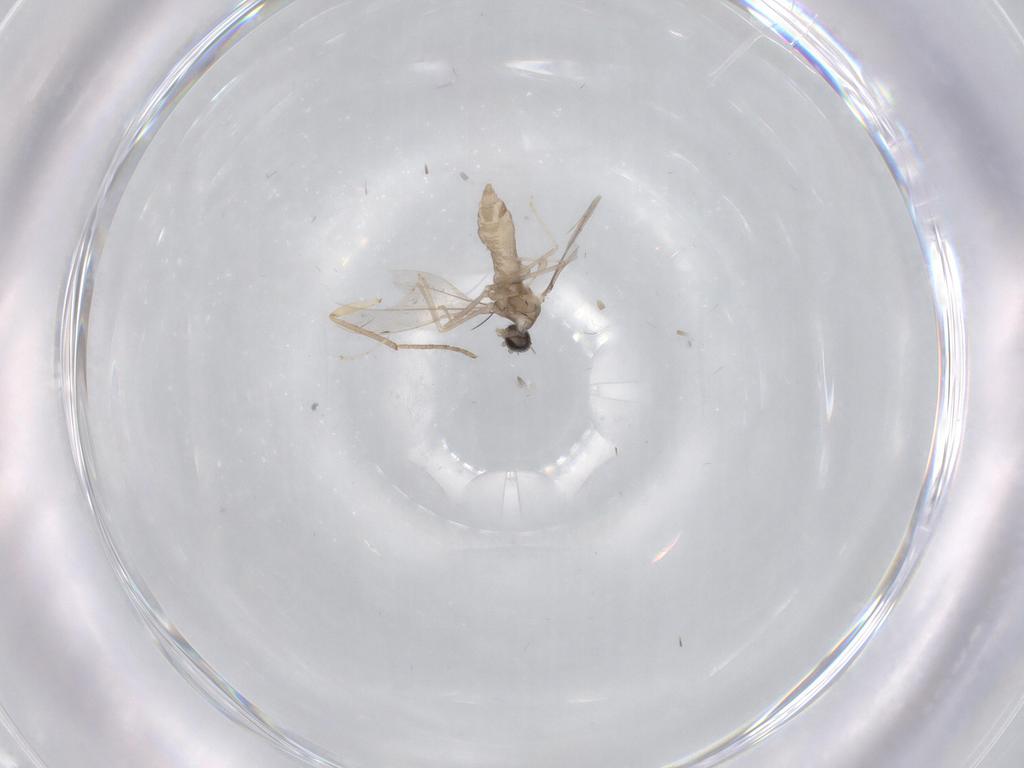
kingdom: Animalia
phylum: Arthropoda
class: Insecta
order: Diptera
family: Cecidomyiidae
